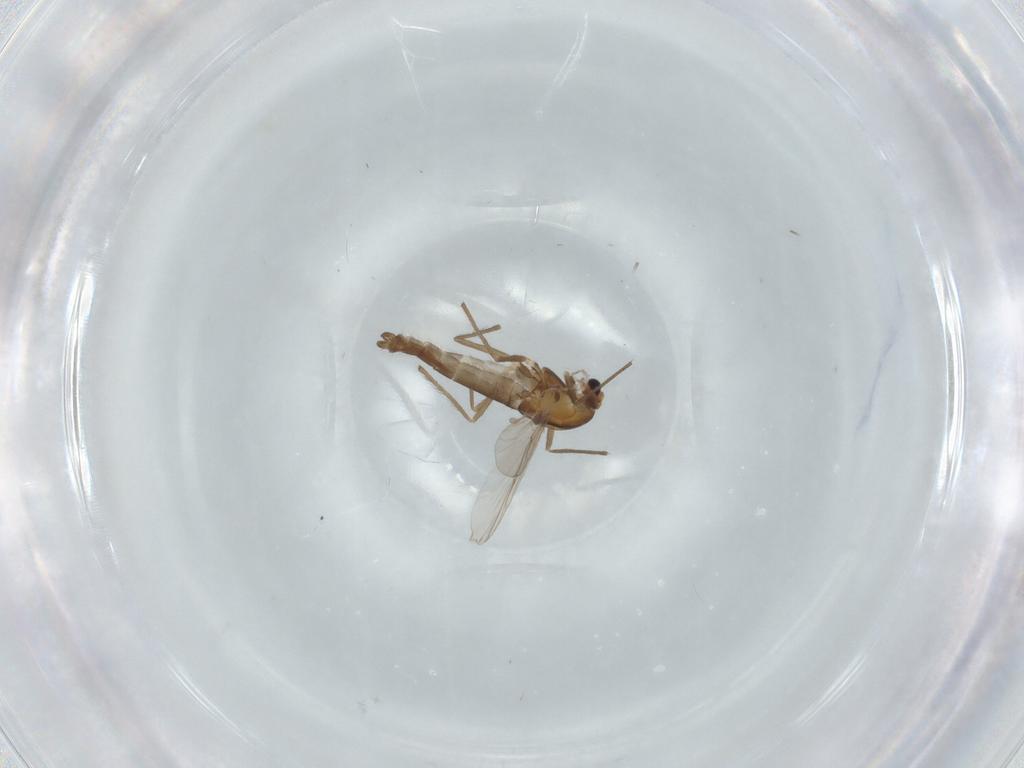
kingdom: Animalia
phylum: Arthropoda
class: Insecta
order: Diptera
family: Chironomidae
